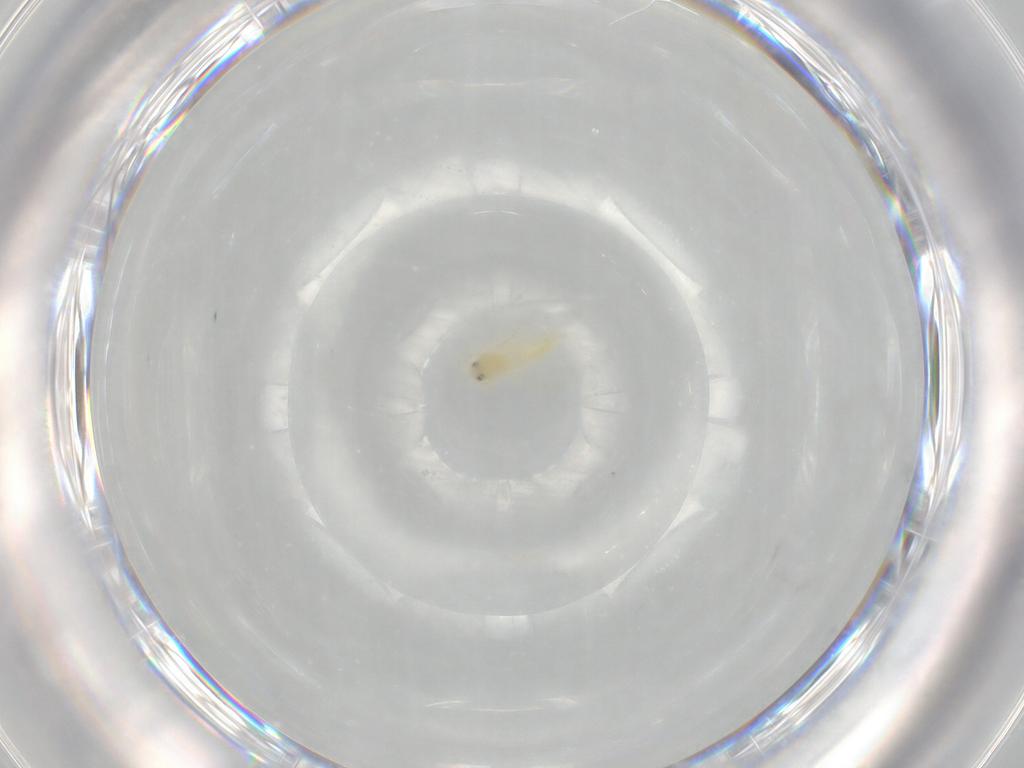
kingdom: Animalia
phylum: Arthropoda
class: Insecta
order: Hemiptera
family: Aleyrodidae
